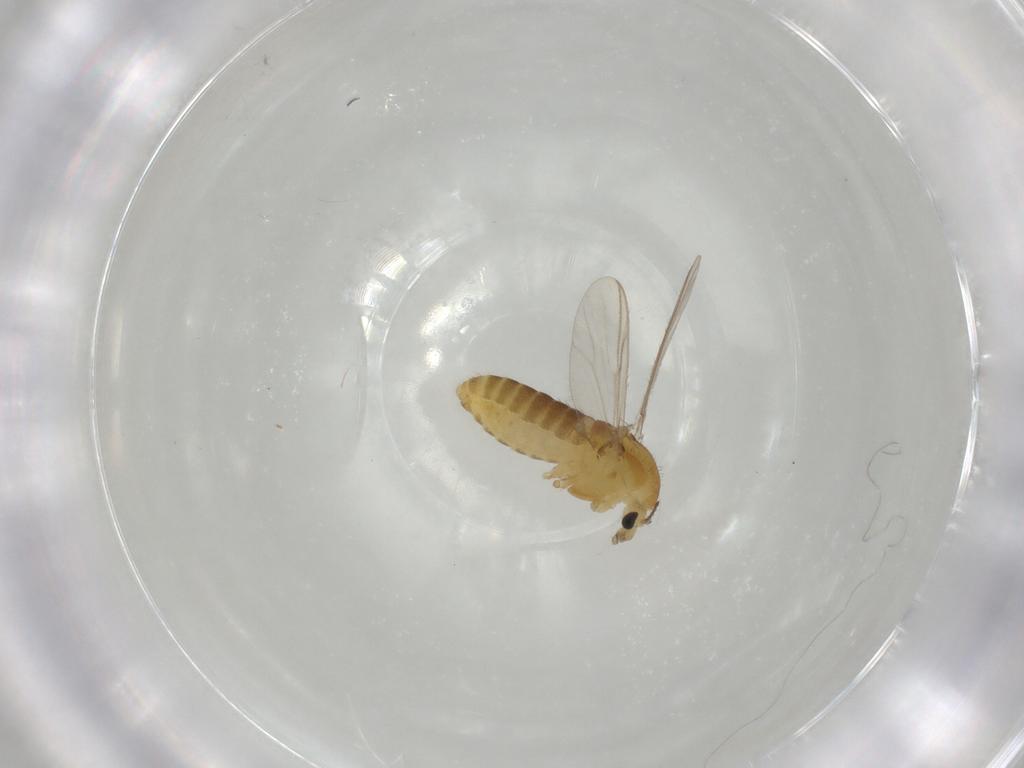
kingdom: Animalia
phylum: Arthropoda
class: Insecta
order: Diptera
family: Chironomidae
